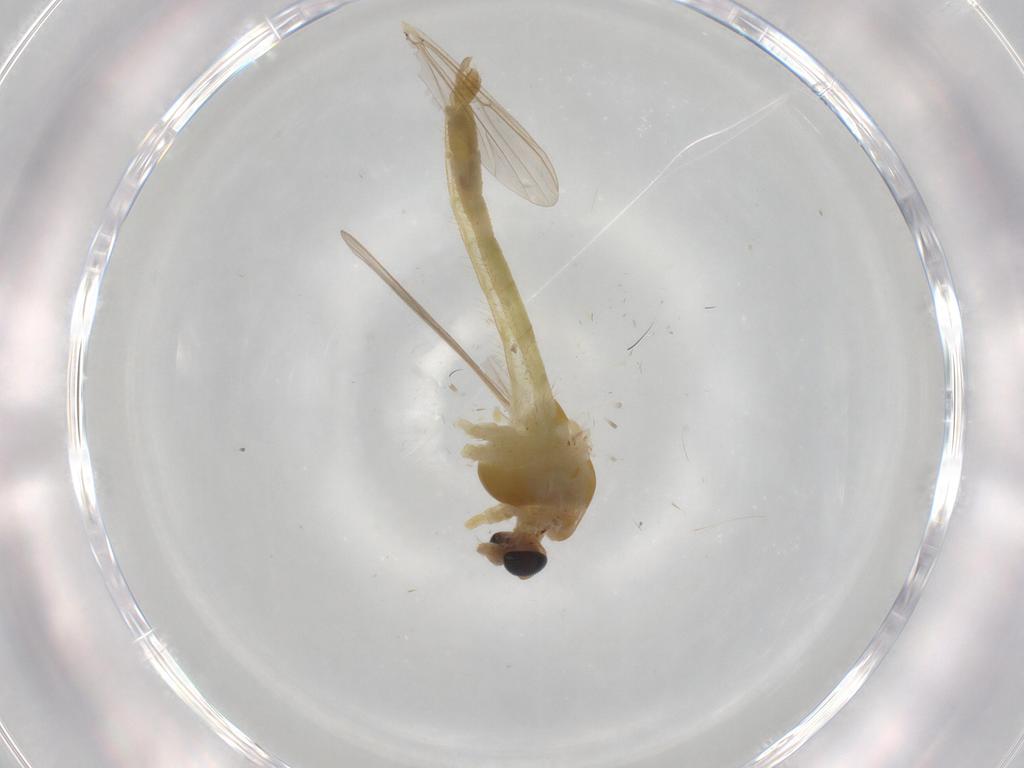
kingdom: Animalia
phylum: Arthropoda
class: Insecta
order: Diptera
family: Chironomidae
